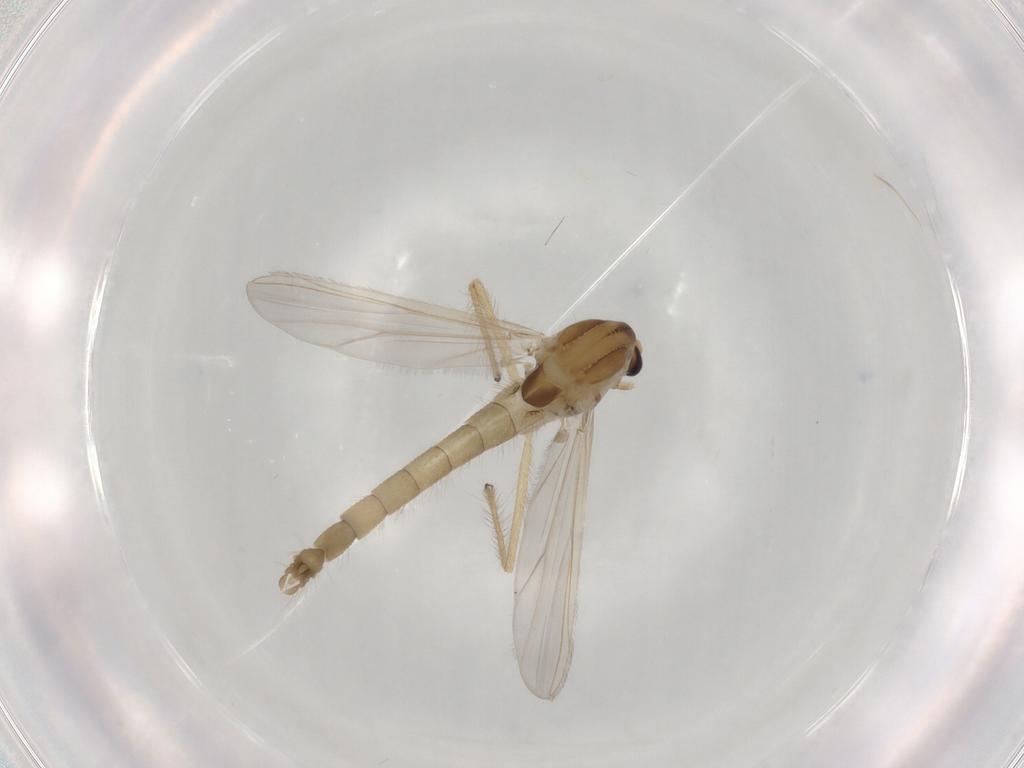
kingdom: Animalia
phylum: Arthropoda
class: Insecta
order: Diptera
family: Chironomidae
